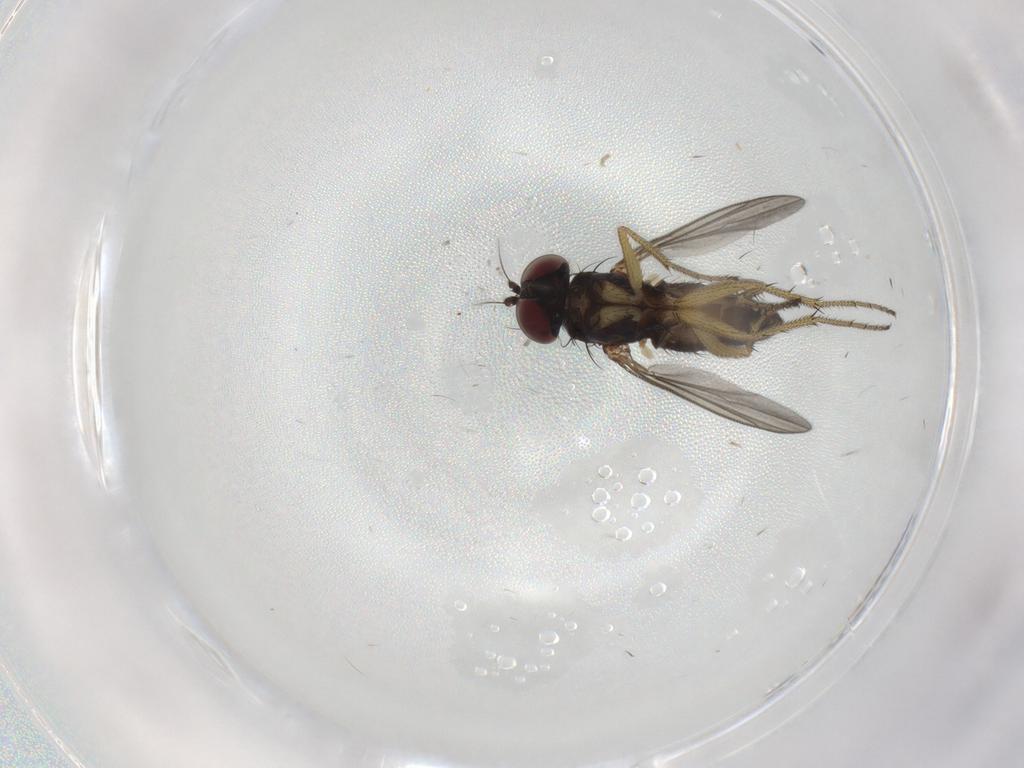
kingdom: Animalia
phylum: Arthropoda
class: Insecta
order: Diptera
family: Dolichopodidae
